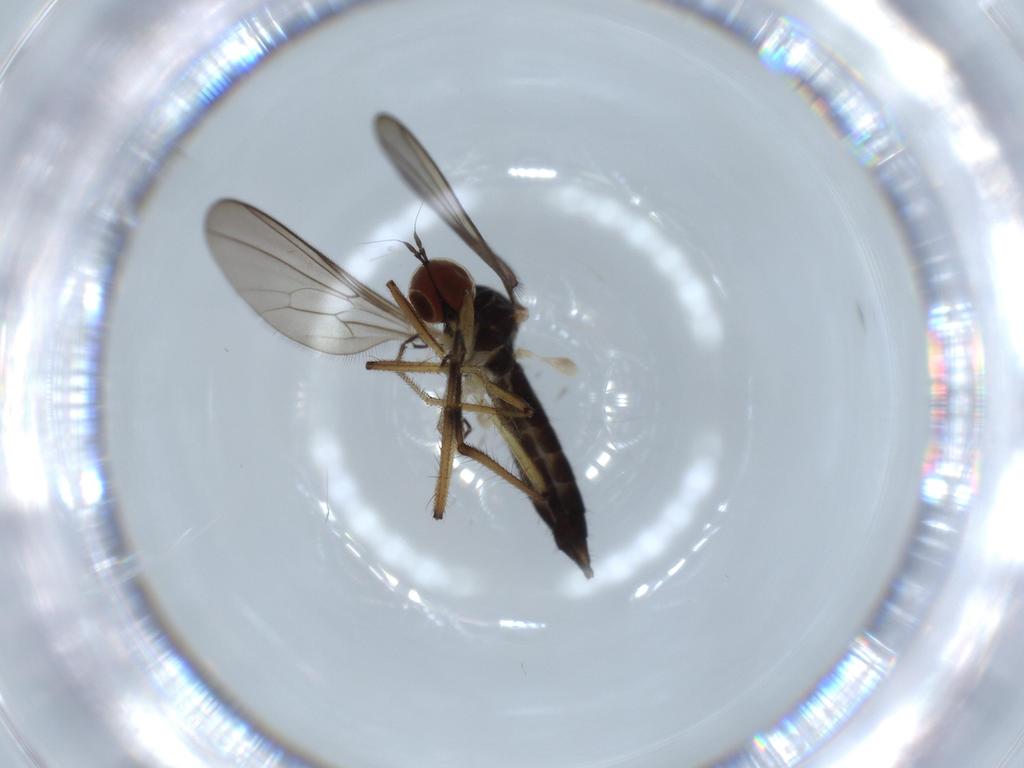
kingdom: Animalia
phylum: Arthropoda
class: Insecta
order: Diptera
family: Hybotidae
